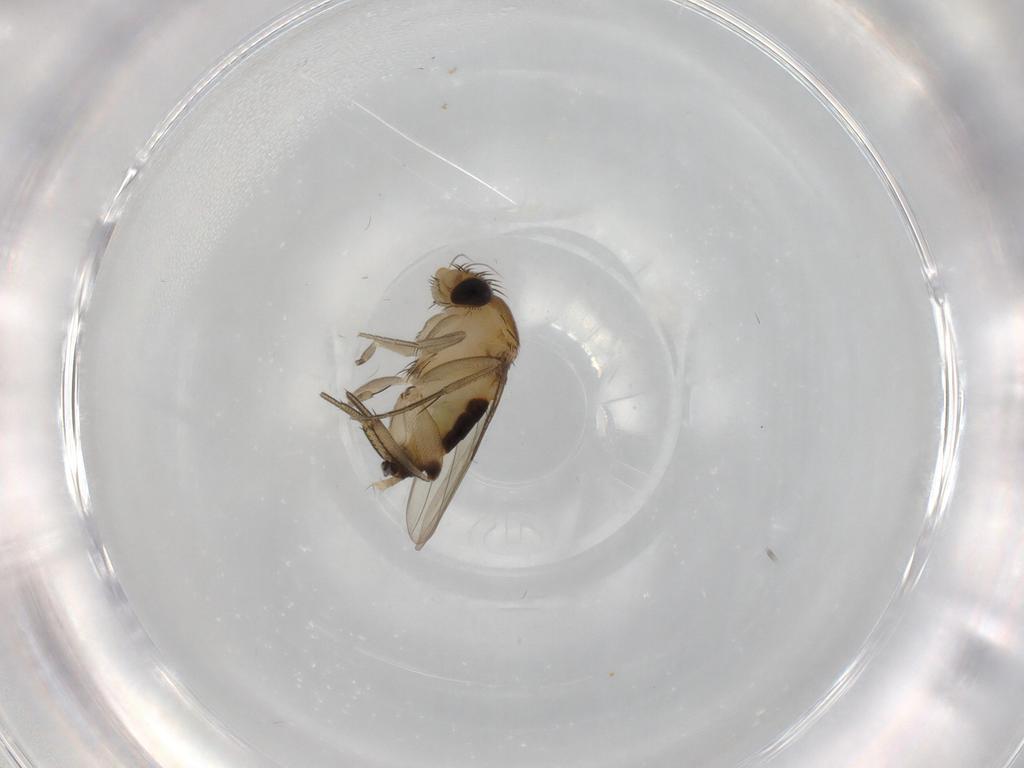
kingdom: Animalia
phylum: Arthropoda
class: Insecta
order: Diptera
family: Phoridae
